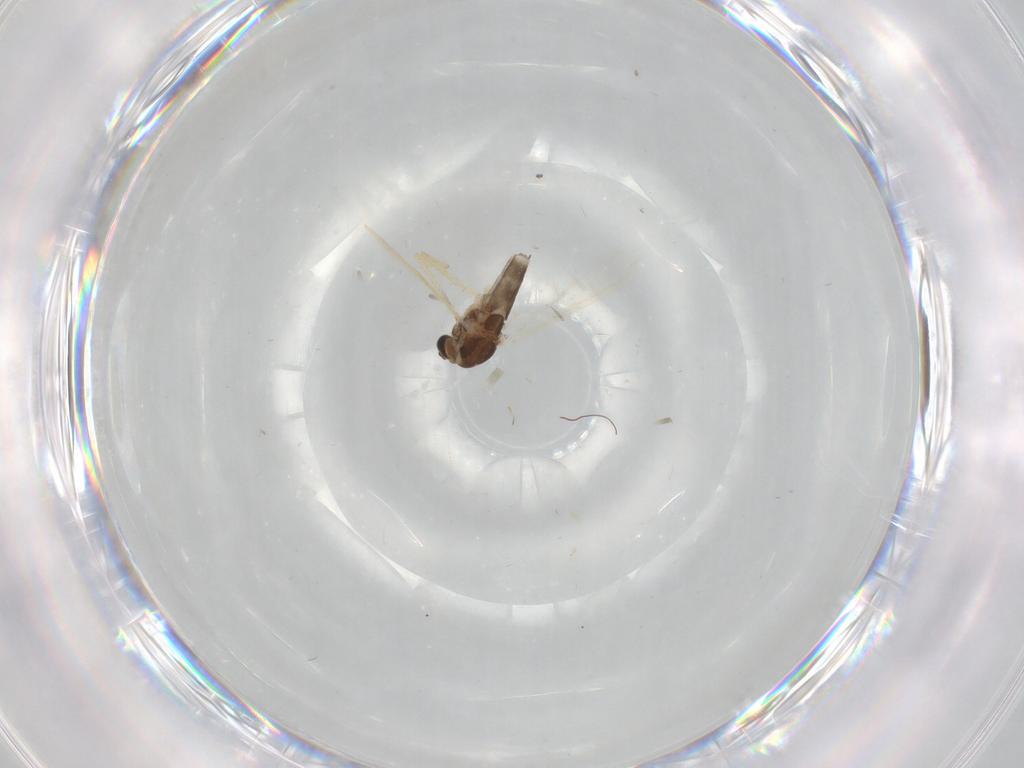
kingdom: Animalia
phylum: Arthropoda
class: Insecta
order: Diptera
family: Chironomidae
